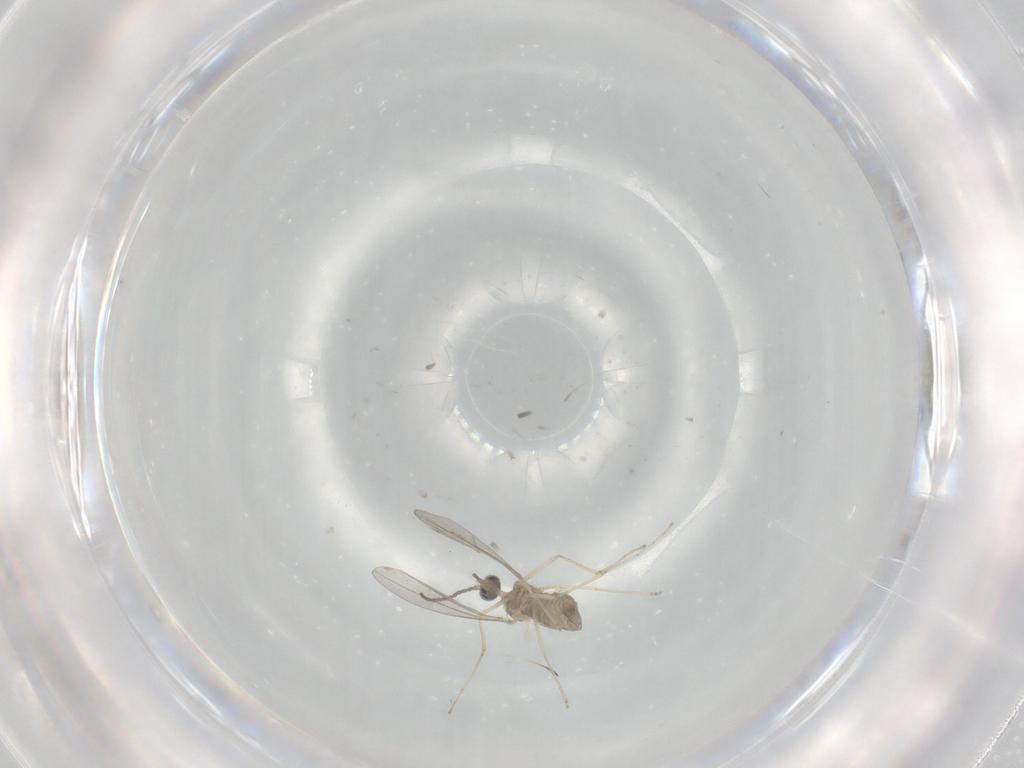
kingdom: Animalia
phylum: Arthropoda
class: Insecta
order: Diptera
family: Cecidomyiidae
